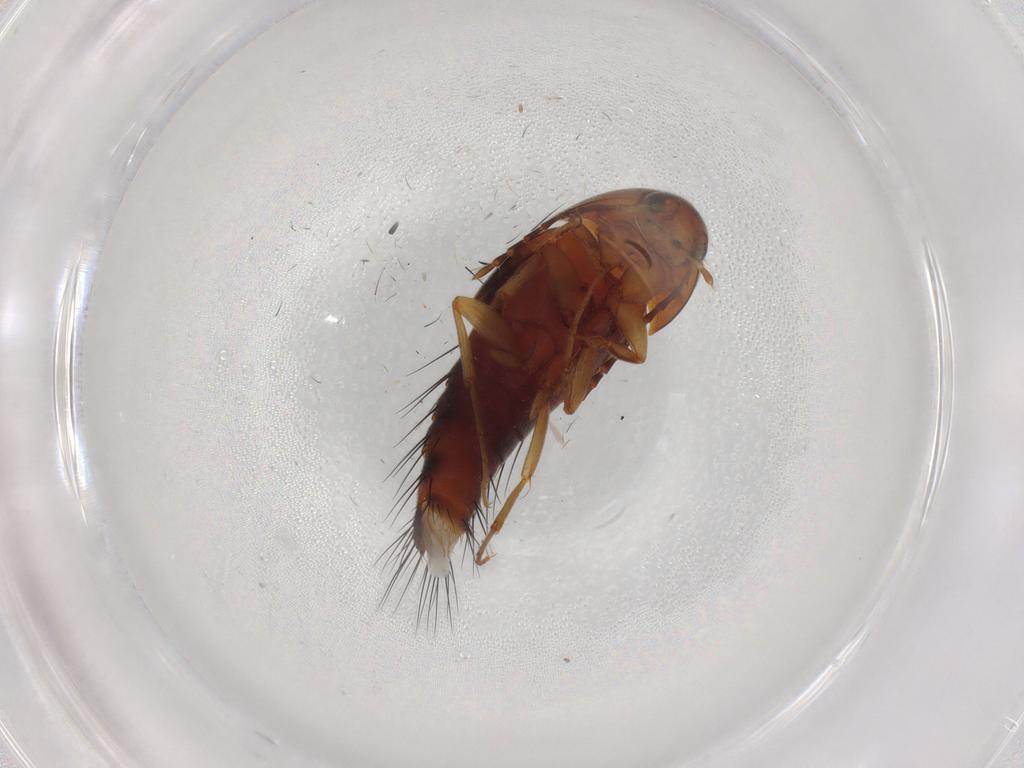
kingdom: Animalia
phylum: Arthropoda
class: Insecta
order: Coleoptera
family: Staphylinidae
